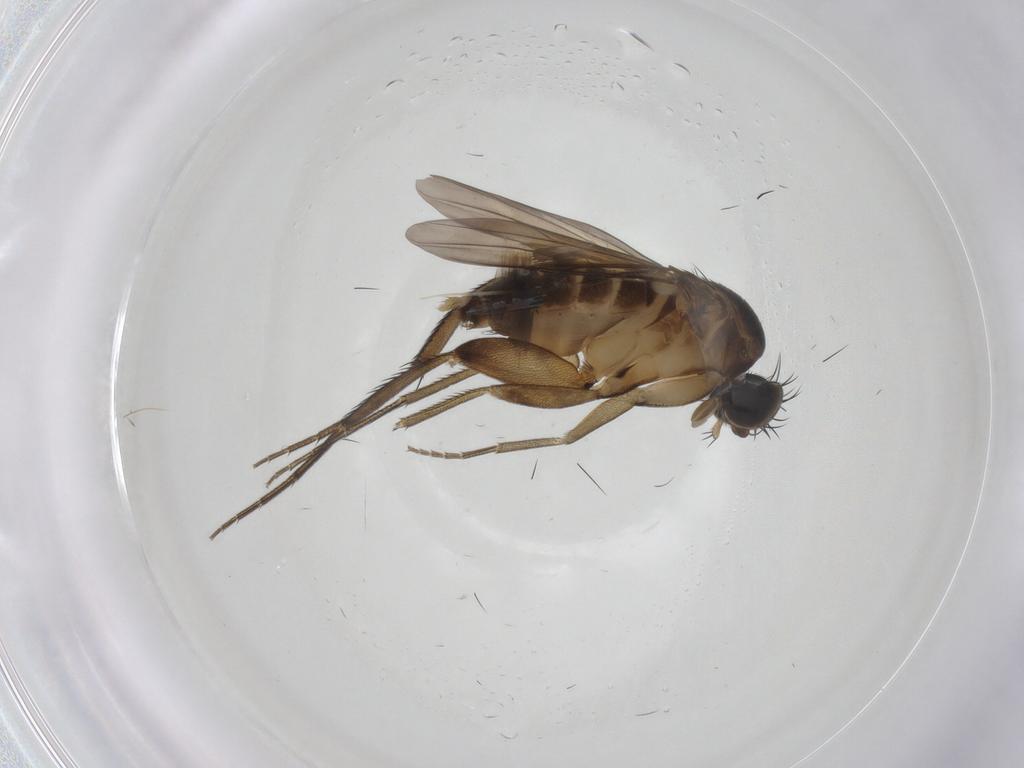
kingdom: Animalia
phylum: Arthropoda
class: Insecta
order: Diptera
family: Phoridae
